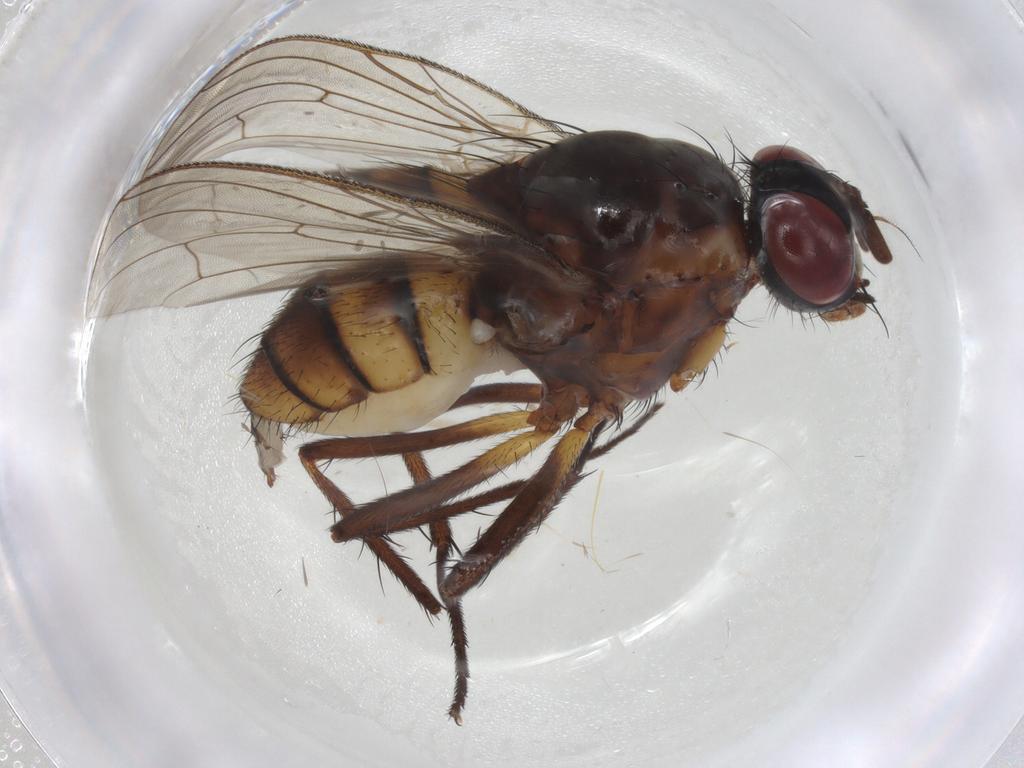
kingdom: Animalia
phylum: Arthropoda
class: Insecta
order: Diptera
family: Anthomyiidae
